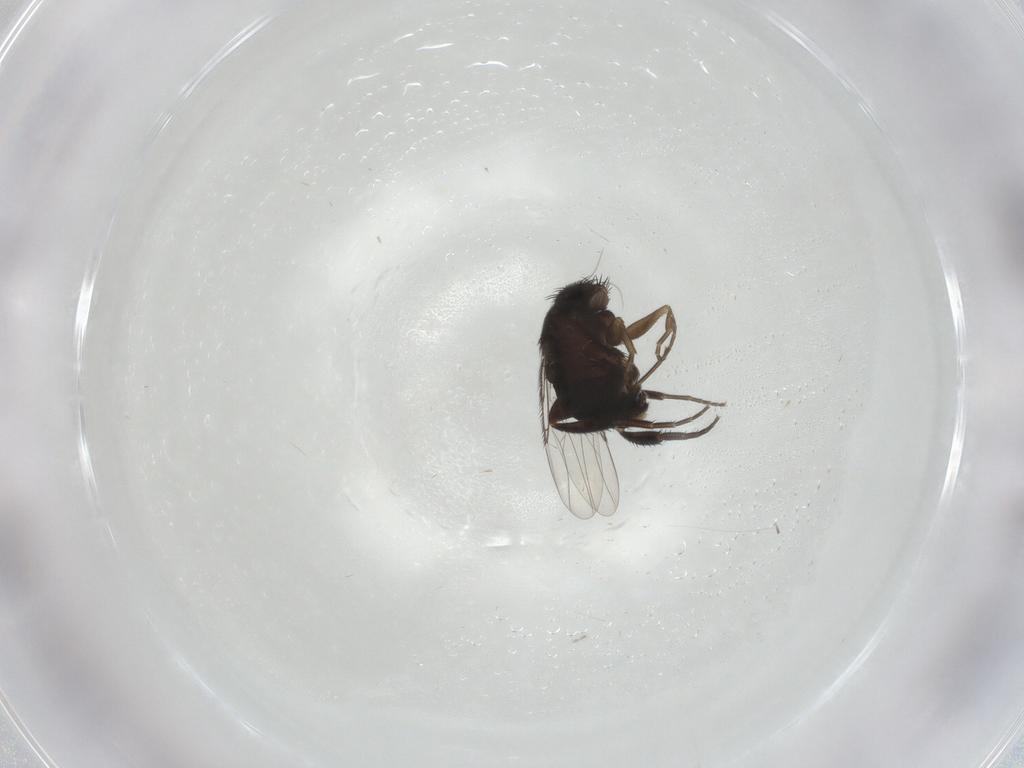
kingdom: Animalia
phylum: Arthropoda
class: Insecta
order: Diptera
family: Phoridae
